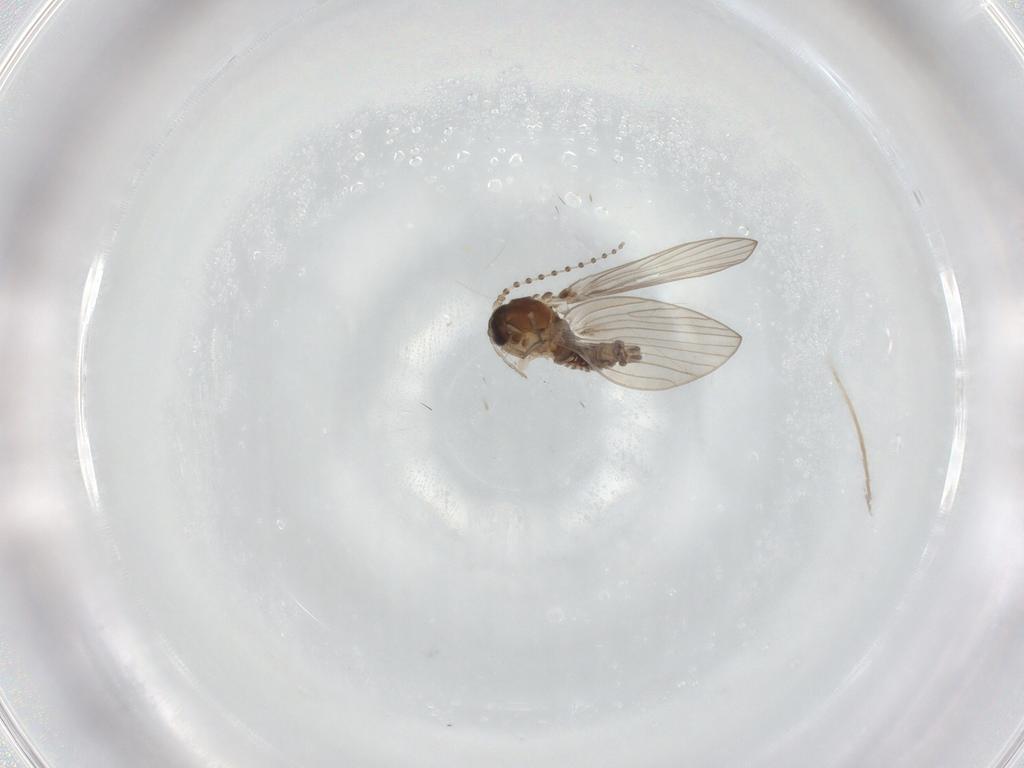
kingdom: Animalia
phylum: Arthropoda
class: Insecta
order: Diptera
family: Psychodidae
